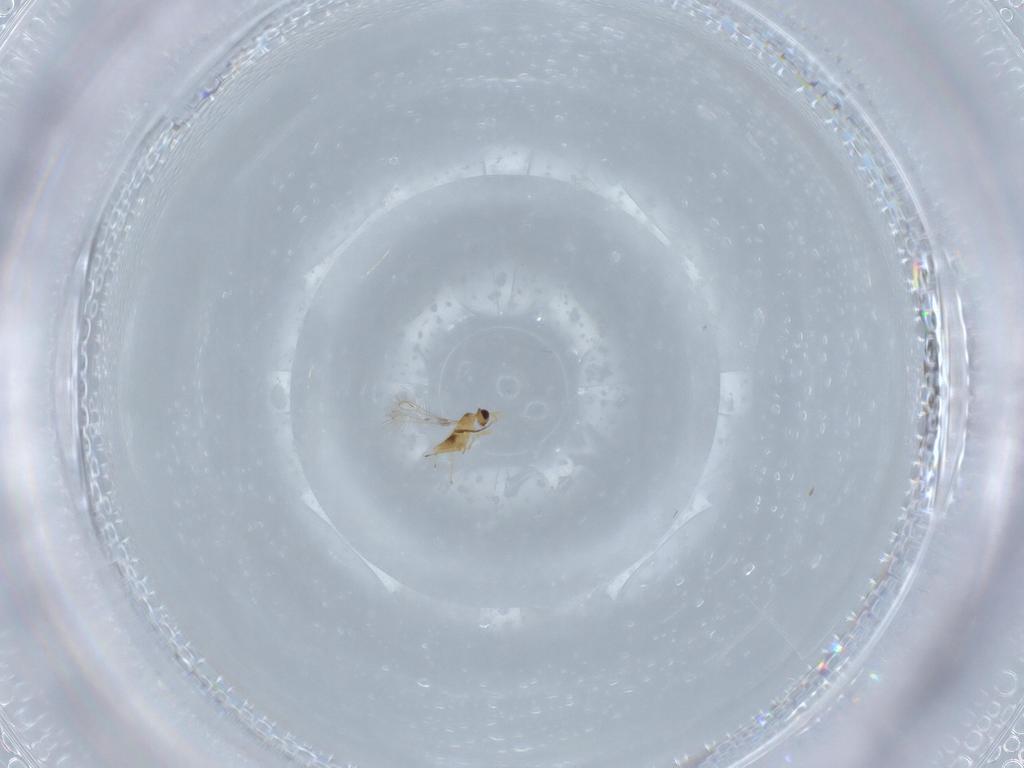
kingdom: Animalia
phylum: Arthropoda
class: Insecta
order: Hymenoptera
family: Mymaridae
